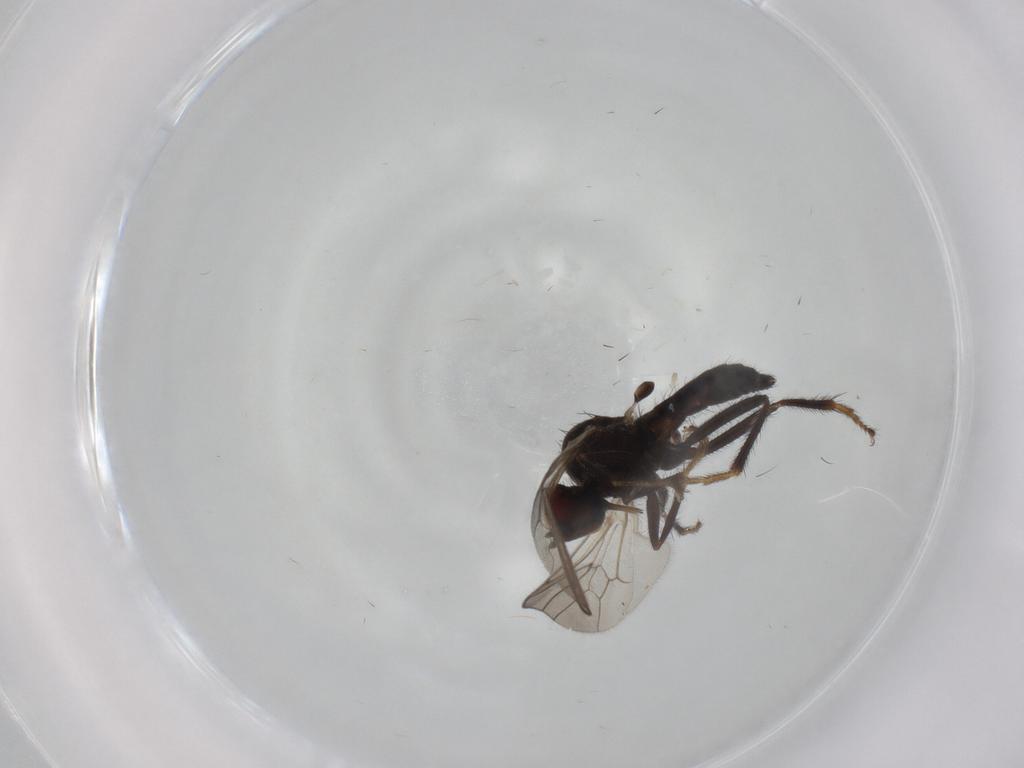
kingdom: Animalia
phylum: Arthropoda
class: Insecta
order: Diptera
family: Hybotidae
